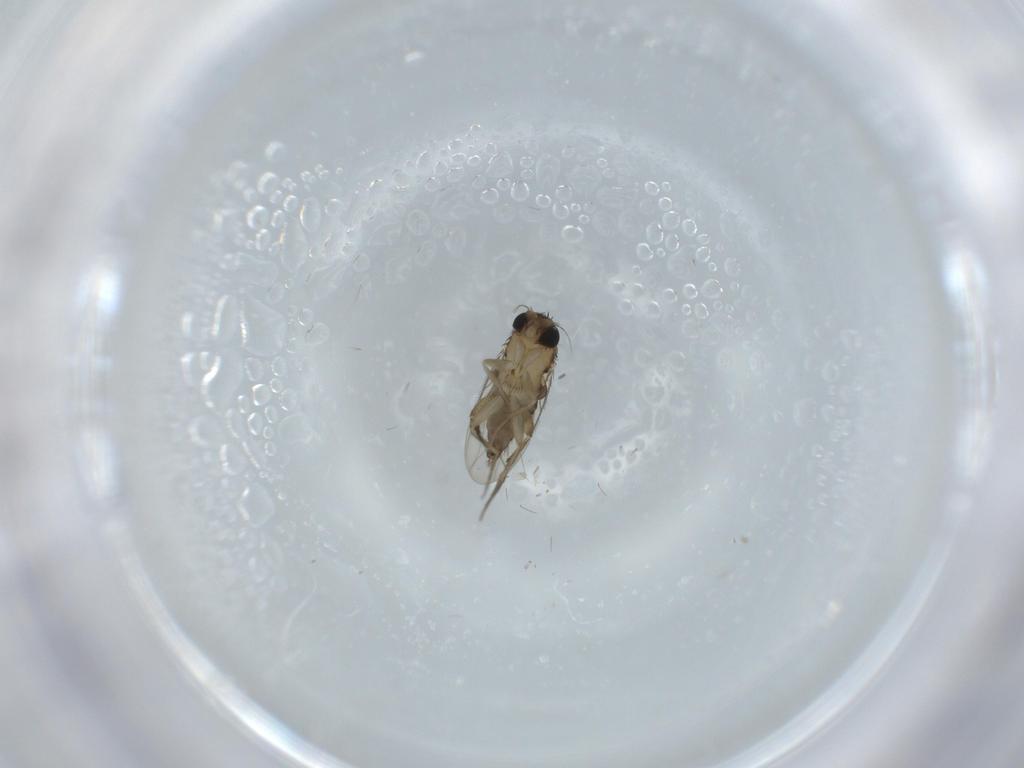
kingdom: Animalia
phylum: Arthropoda
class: Insecta
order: Diptera
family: Phoridae
